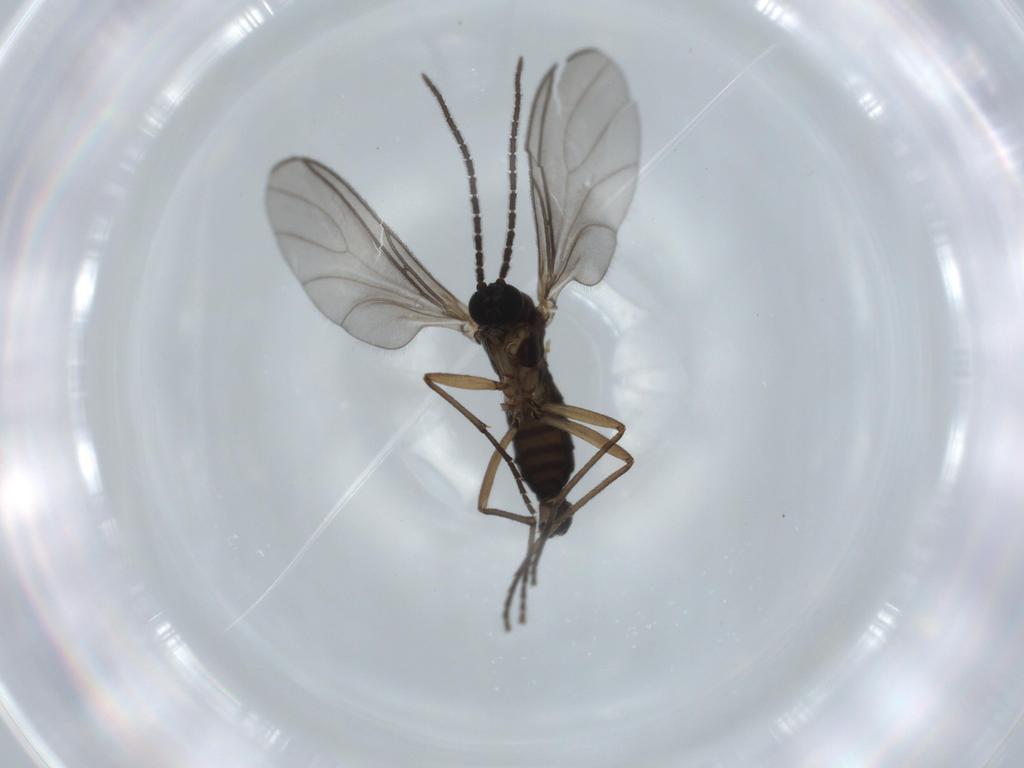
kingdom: Animalia
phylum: Arthropoda
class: Insecta
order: Diptera
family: Sciaridae
